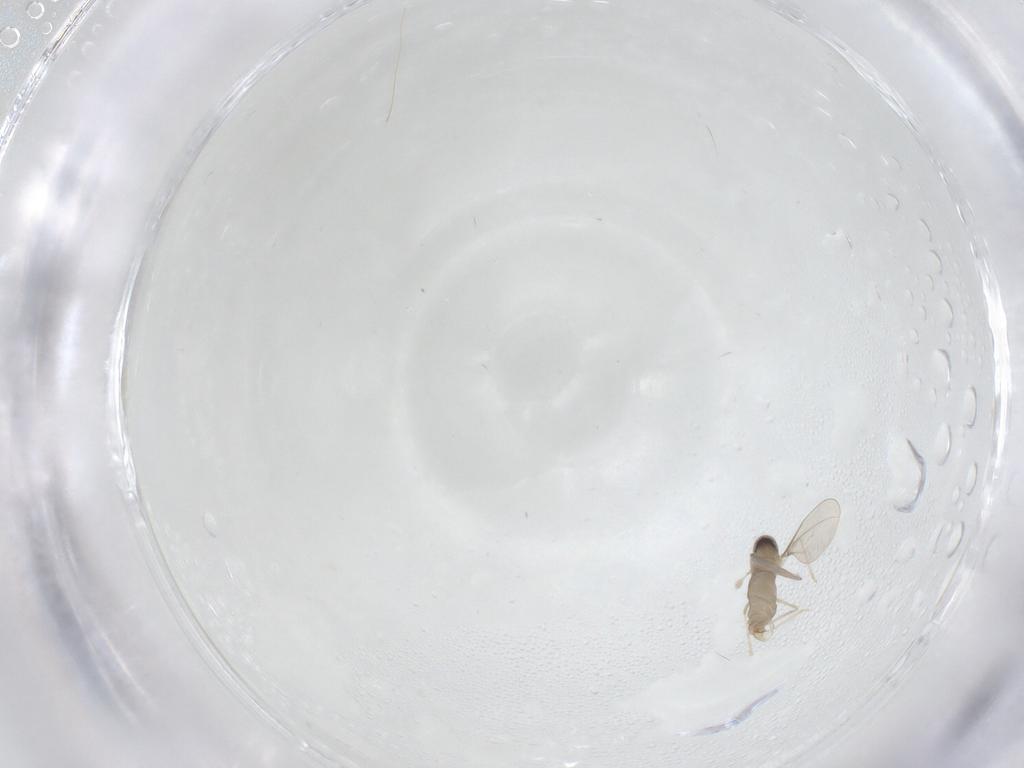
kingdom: Animalia
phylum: Arthropoda
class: Insecta
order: Diptera
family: Cecidomyiidae
